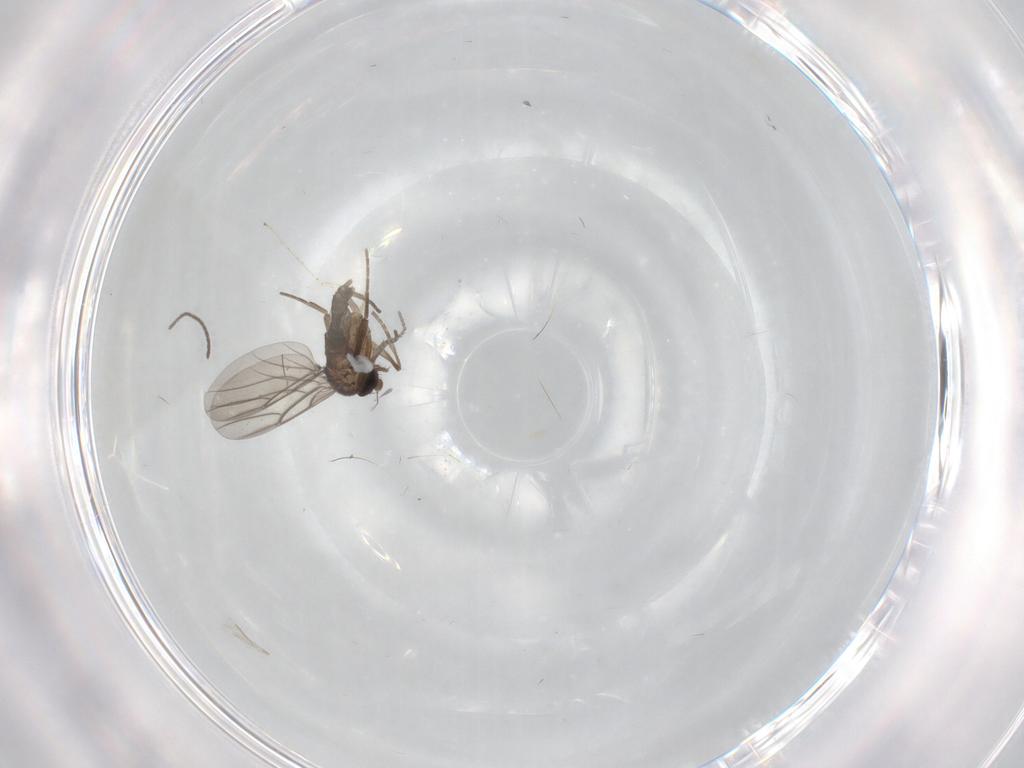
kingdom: Animalia
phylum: Arthropoda
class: Insecta
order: Diptera
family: Phoridae
